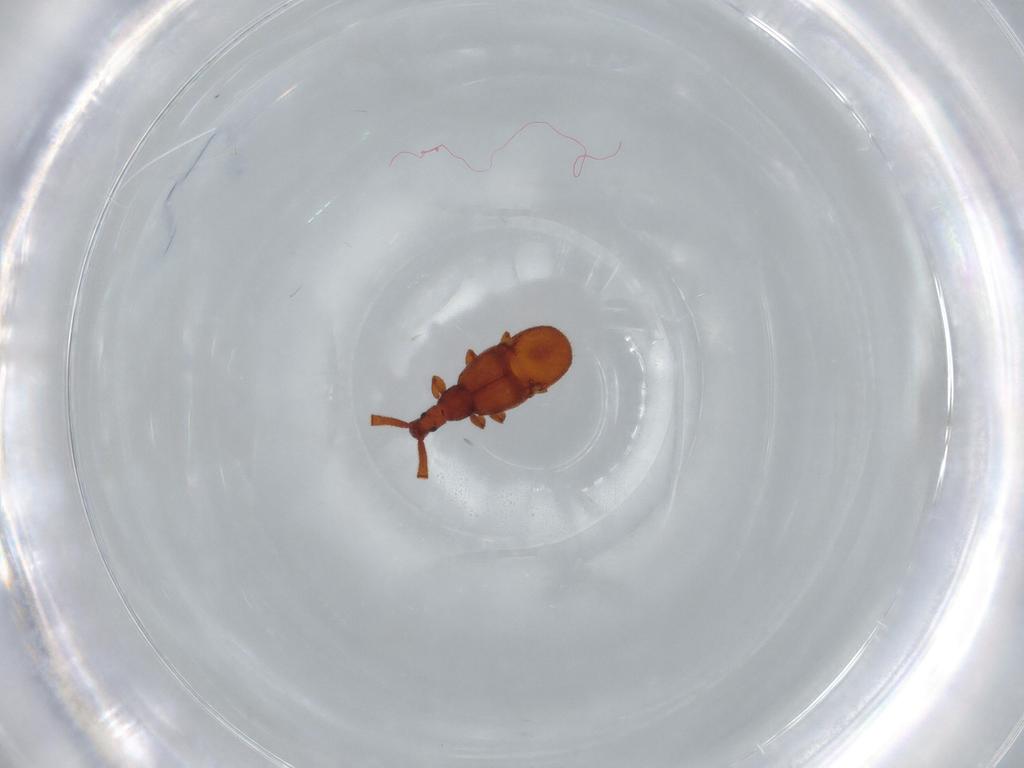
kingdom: Animalia
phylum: Arthropoda
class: Insecta
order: Coleoptera
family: Staphylinidae
